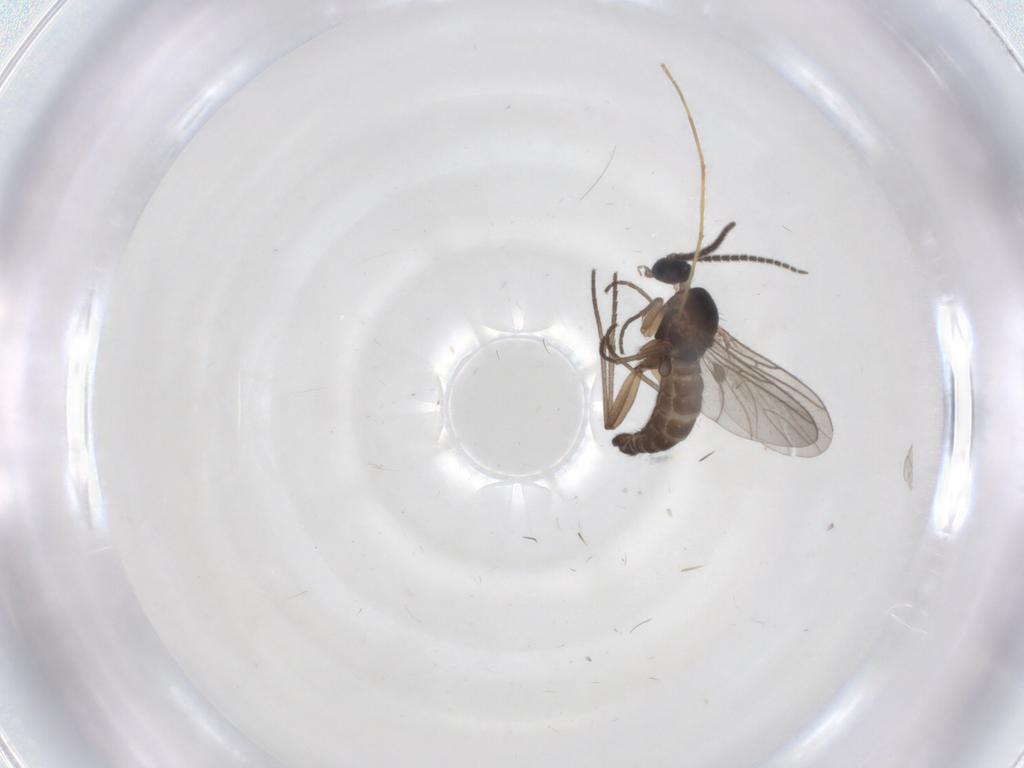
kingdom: Animalia
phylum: Arthropoda
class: Insecta
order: Diptera
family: Sciaridae
